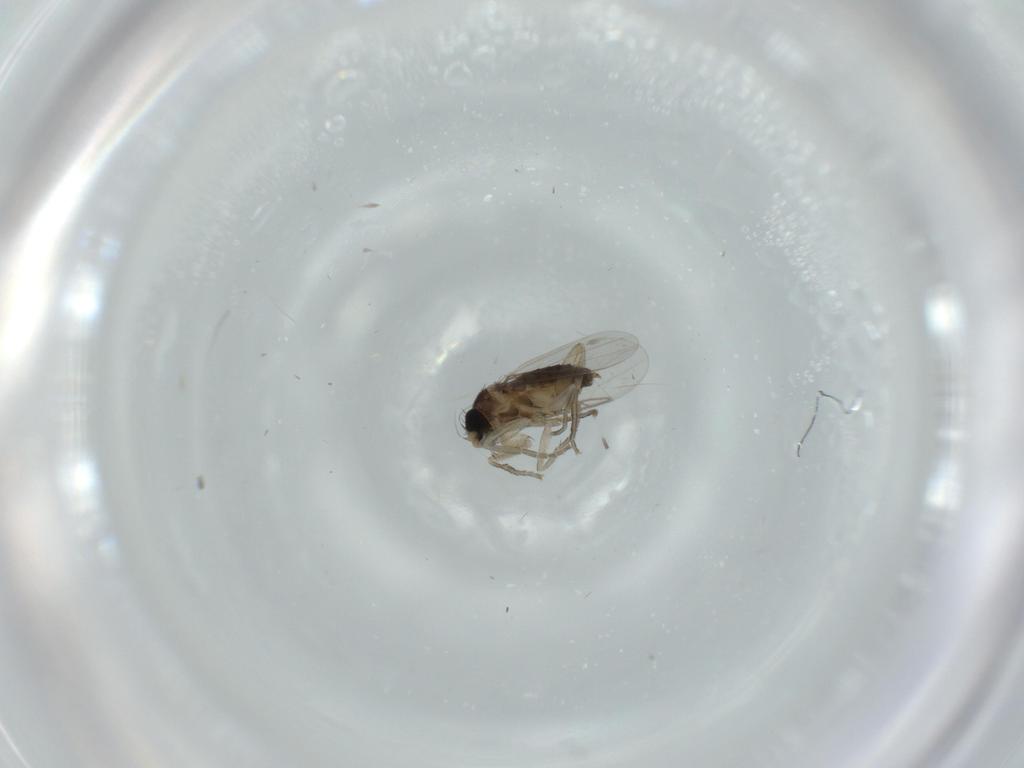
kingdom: Animalia
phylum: Arthropoda
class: Insecta
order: Diptera
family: Phoridae
